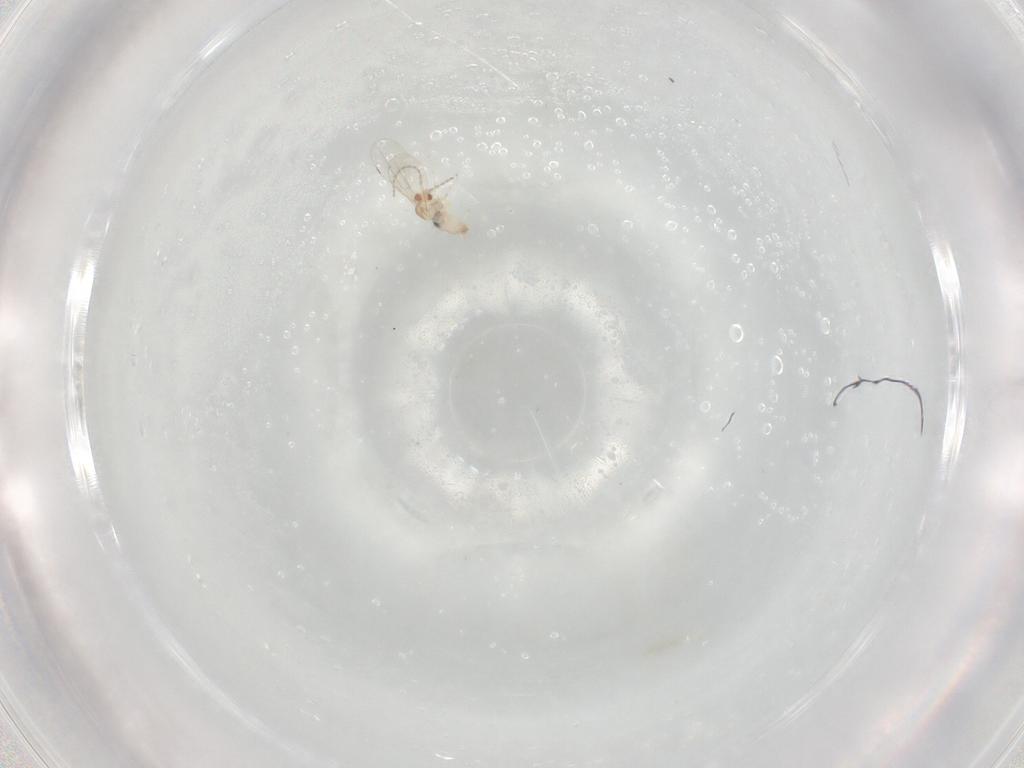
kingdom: Animalia
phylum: Arthropoda
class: Insecta
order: Diptera
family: Cecidomyiidae
